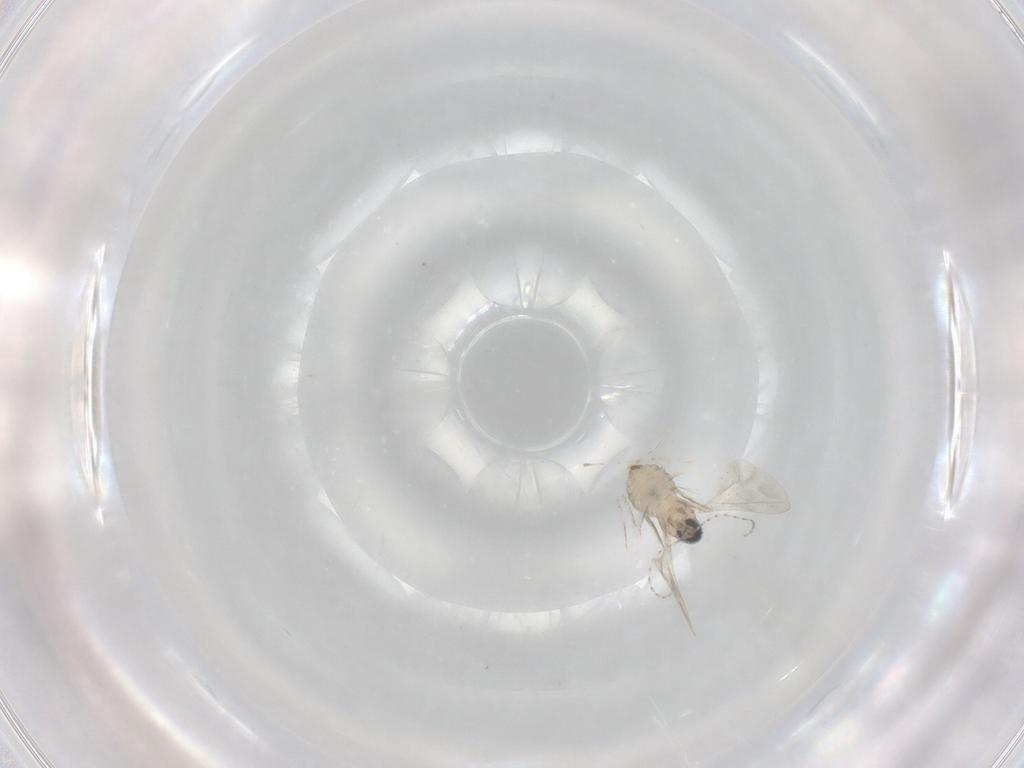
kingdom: Animalia
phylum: Arthropoda
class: Insecta
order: Diptera
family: Cecidomyiidae
